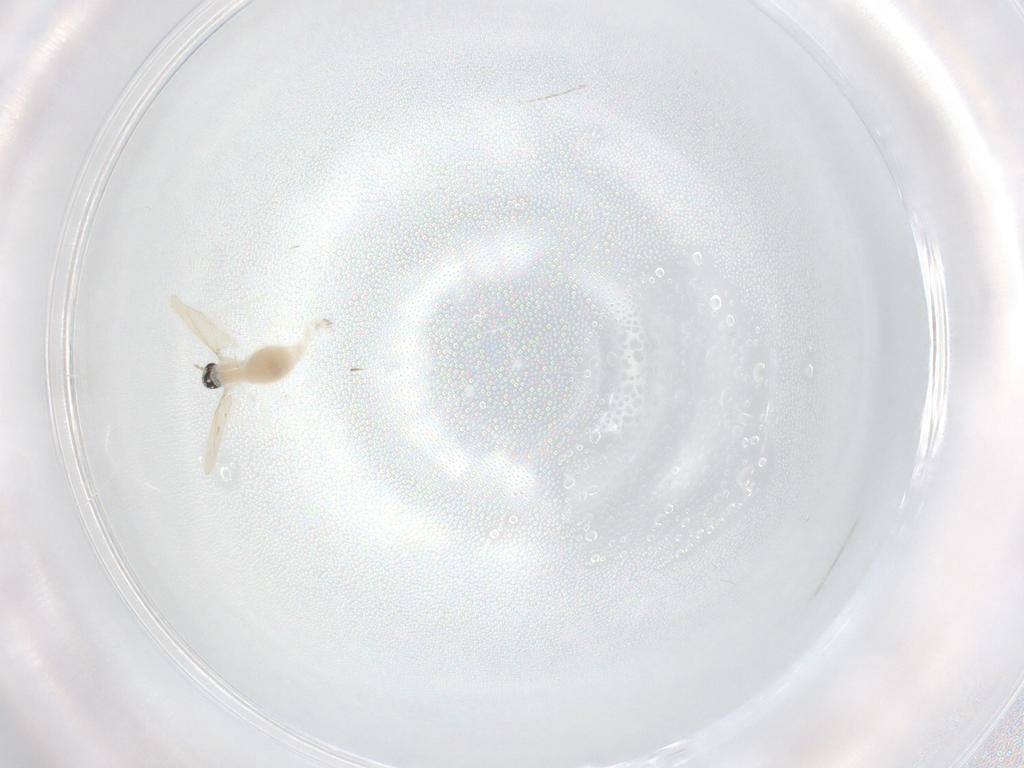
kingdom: Animalia
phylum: Arthropoda
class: Insecta
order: Diptera
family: Cecidomyiidae
